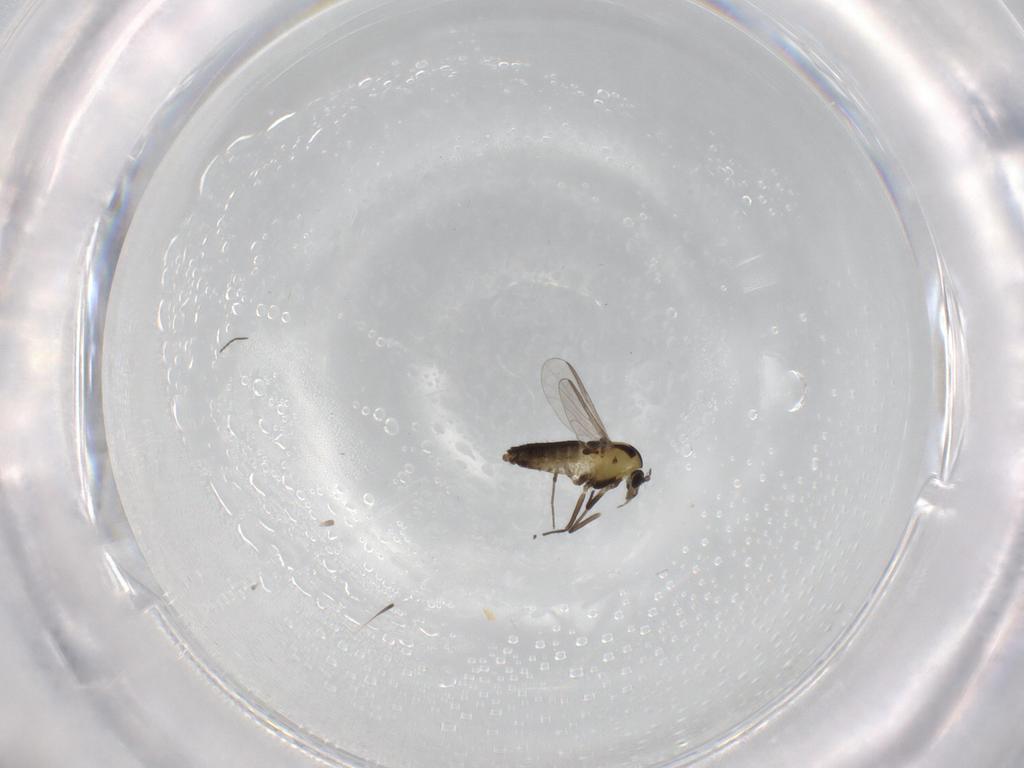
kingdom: Animalia
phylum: Arthropoda
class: Insecta
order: Diptera
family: Chironomidae
